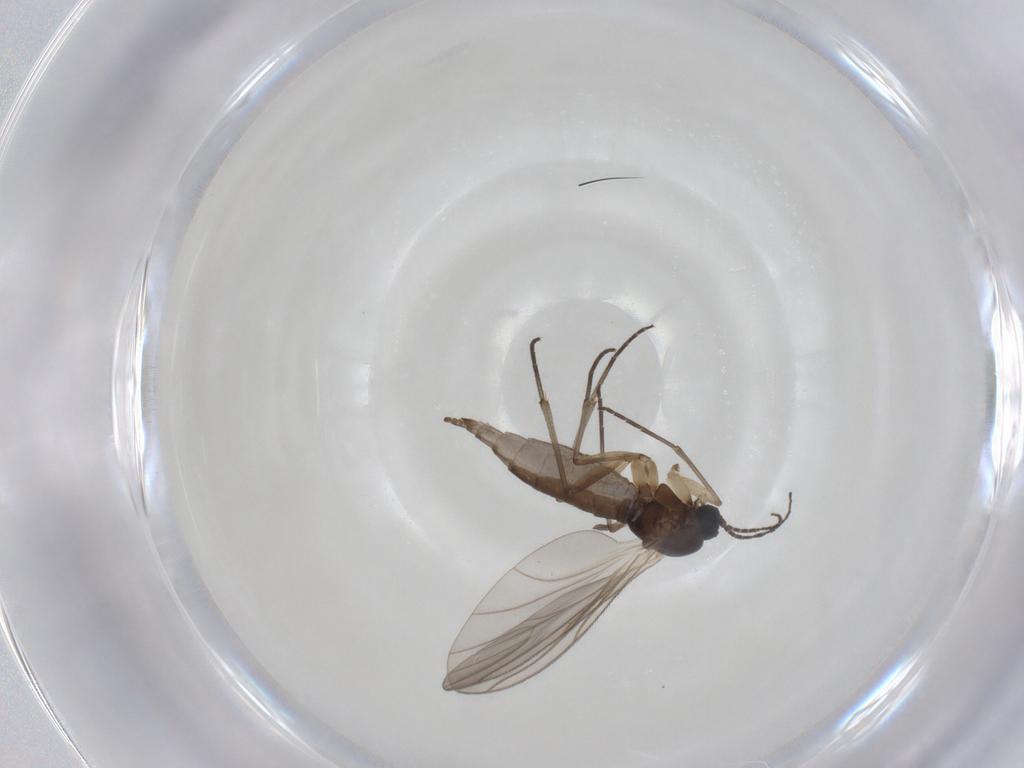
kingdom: Animalia
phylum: Arthropoda
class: Insecta
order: Diptera
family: Sciaridae
